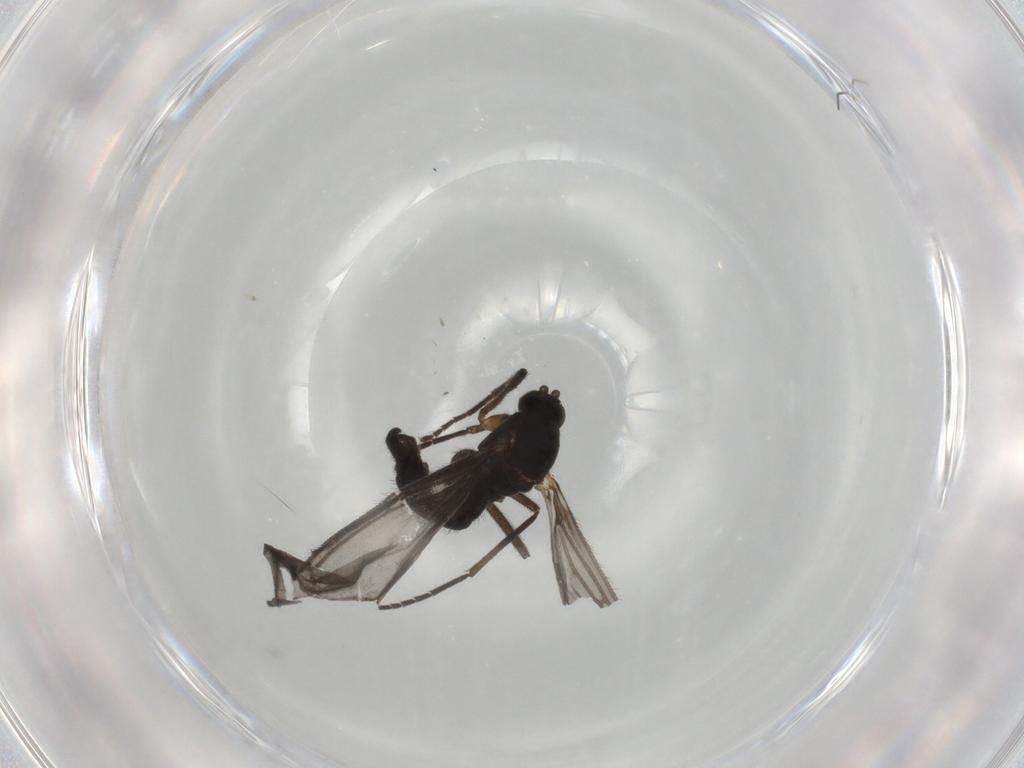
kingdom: Animalia
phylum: Arthropoda
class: Insecta
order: Diptera
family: Sciaridae
